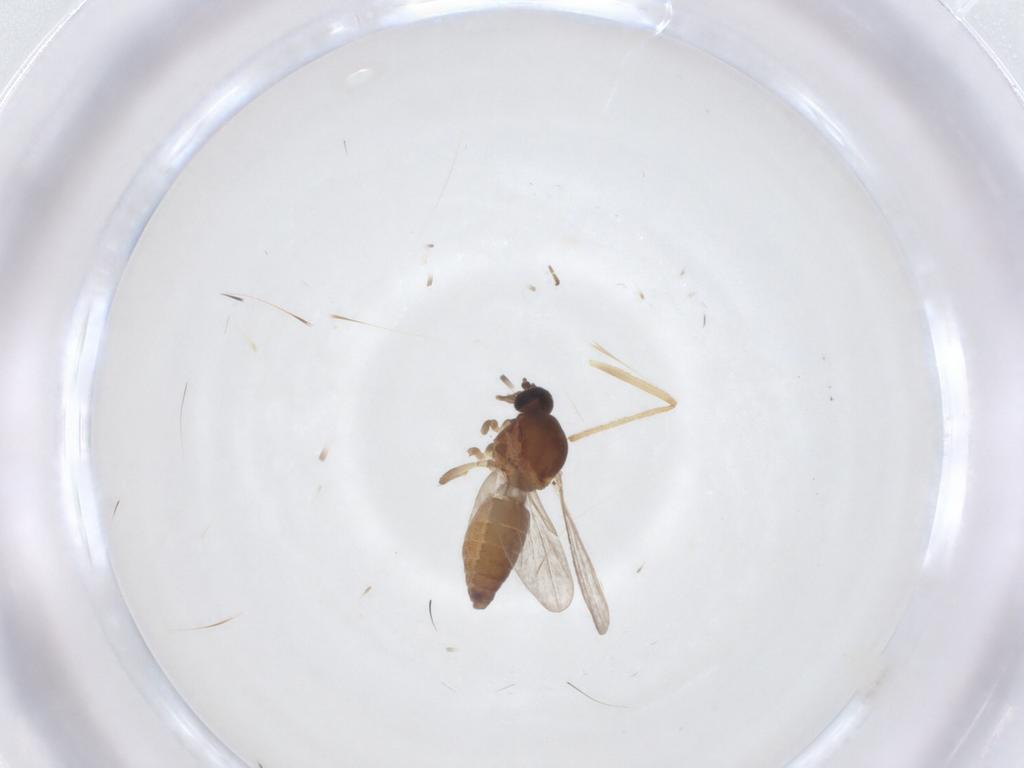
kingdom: Animalia
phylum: Arthropoda
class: Insecta
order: Diptera
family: Ceratopogonidae
